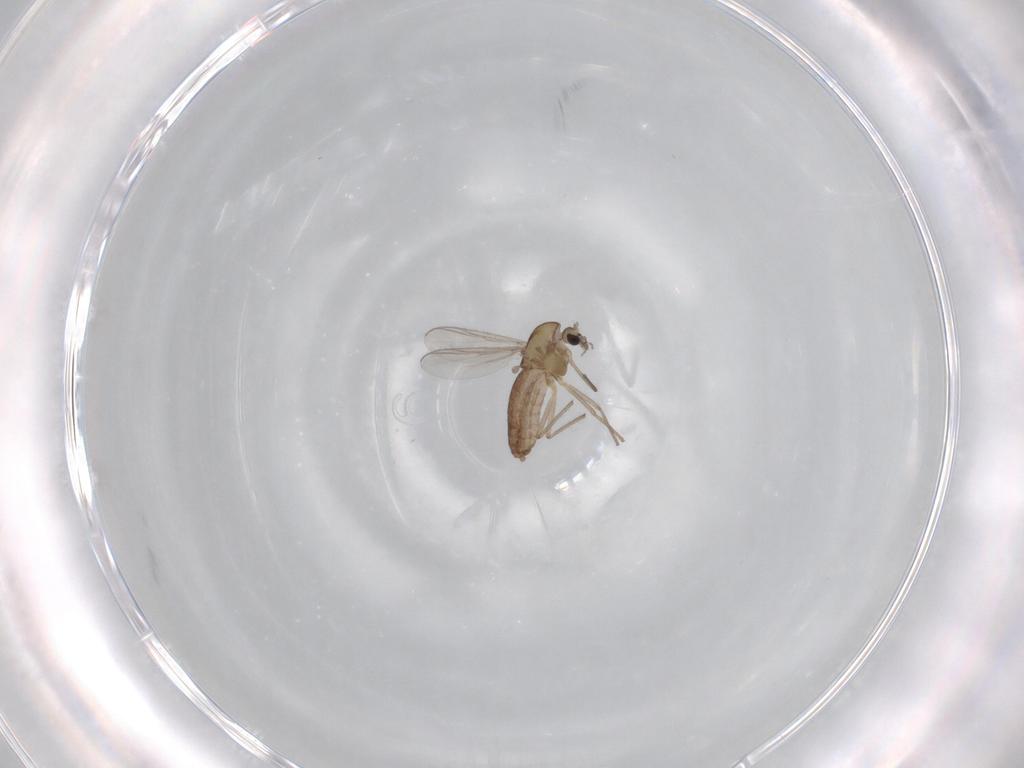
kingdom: Animalia
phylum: Arthropoda
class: Insecta
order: Diptera
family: Chironomidae
